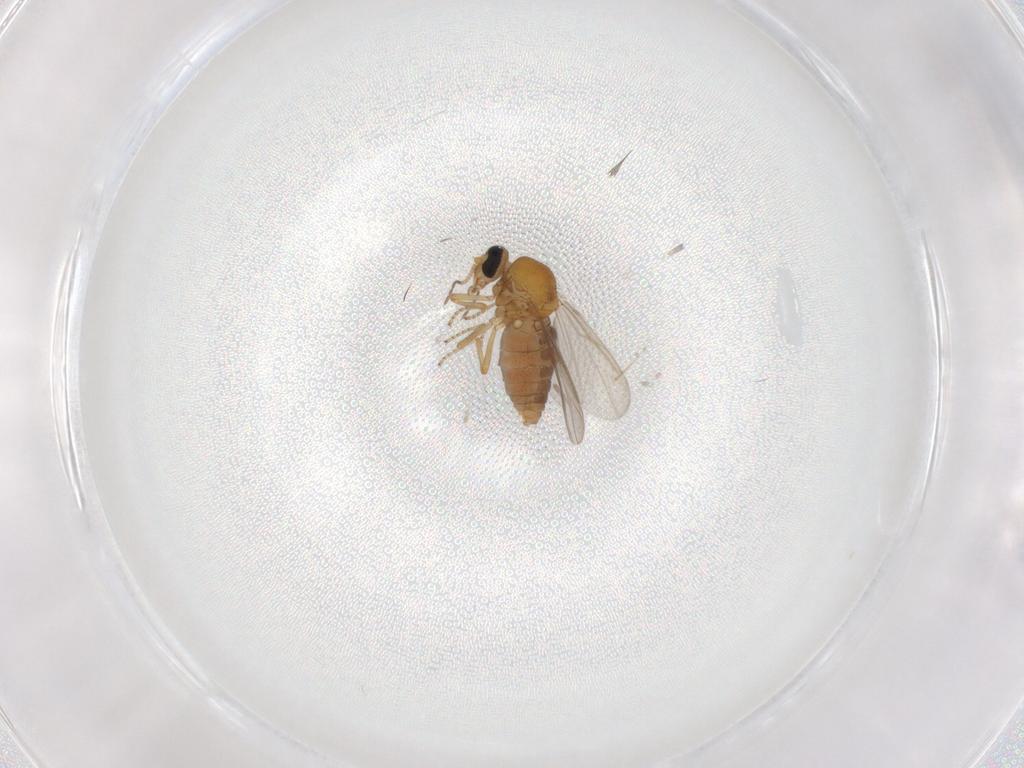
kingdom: Animalia
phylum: Arthropoda
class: Insecta
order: Diptera
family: Ceratopogonidae
